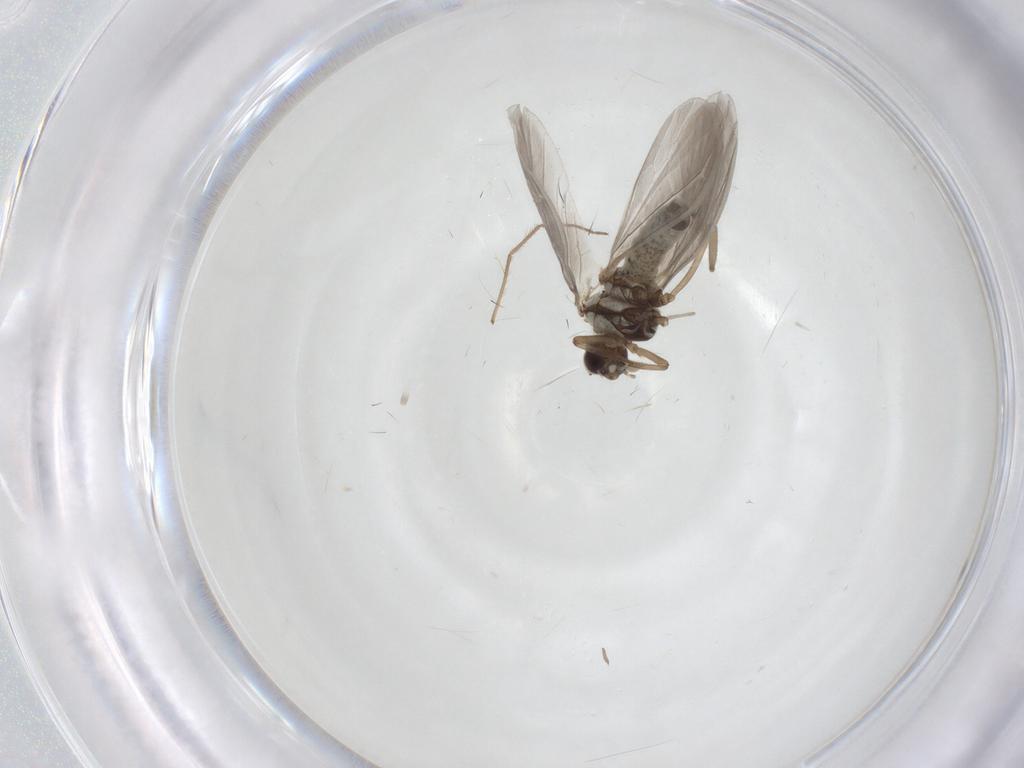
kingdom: Animalia
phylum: Arthropoda
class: Insecta
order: Neuroptera
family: Coniopterygidae
